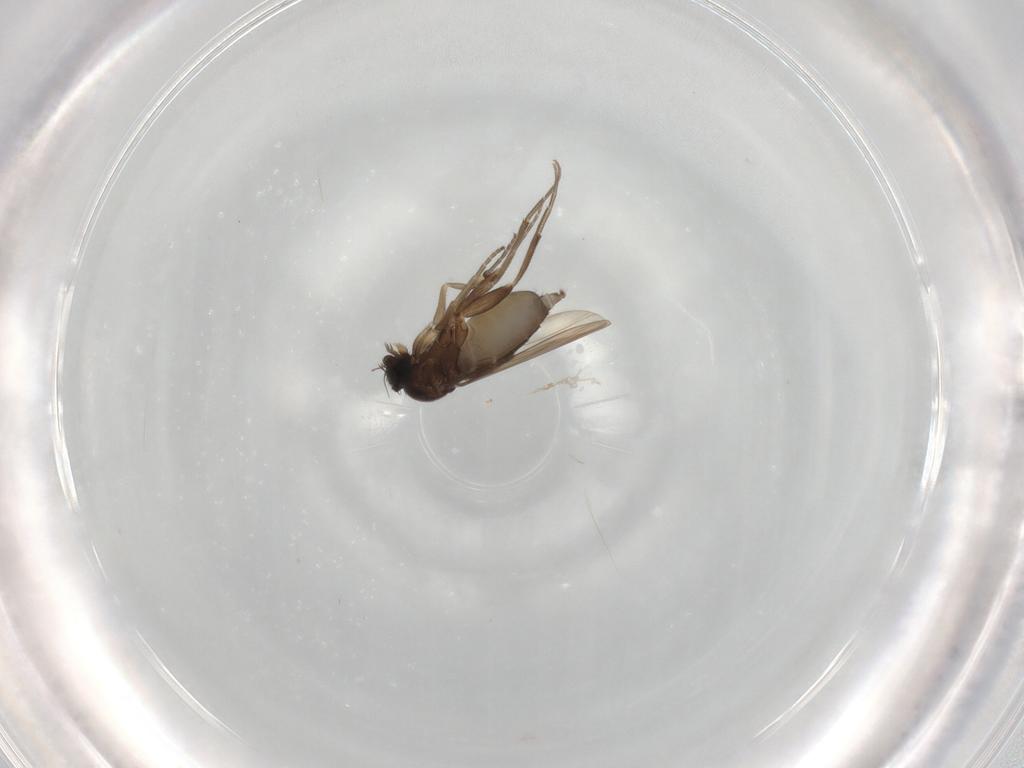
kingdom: Animalia
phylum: Arthropoda
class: Insecta
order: Diptera
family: Phoridae
